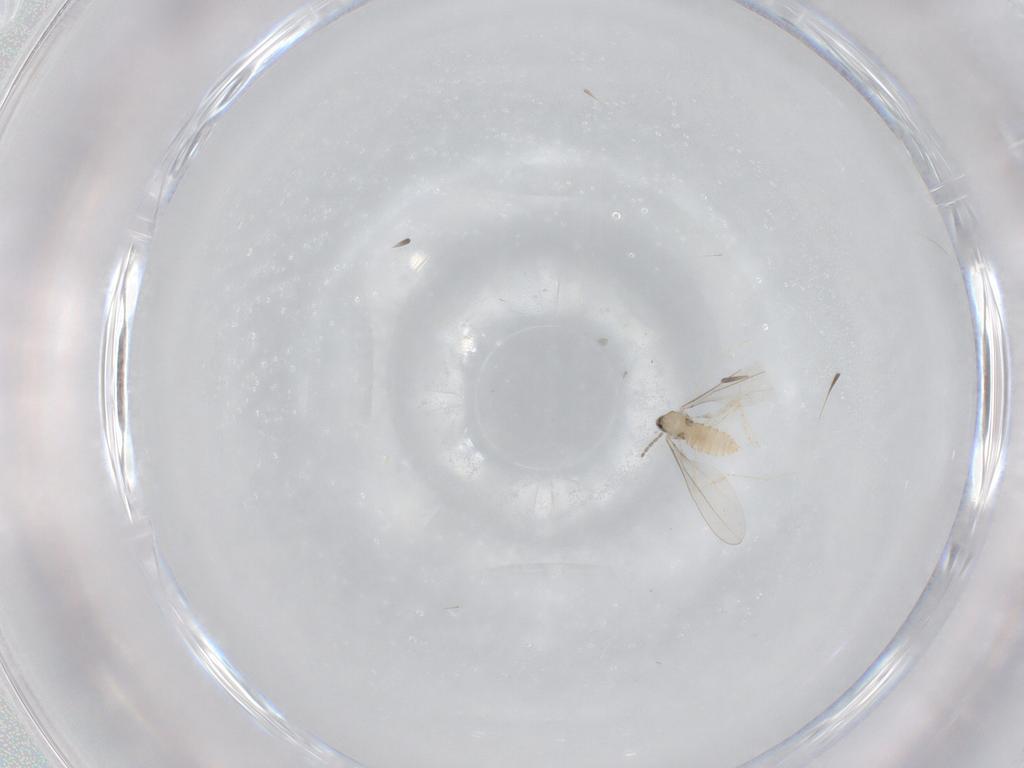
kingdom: Animalia
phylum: Arthropoda
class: Insecta
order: Diptera
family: Cecidomyiidae
